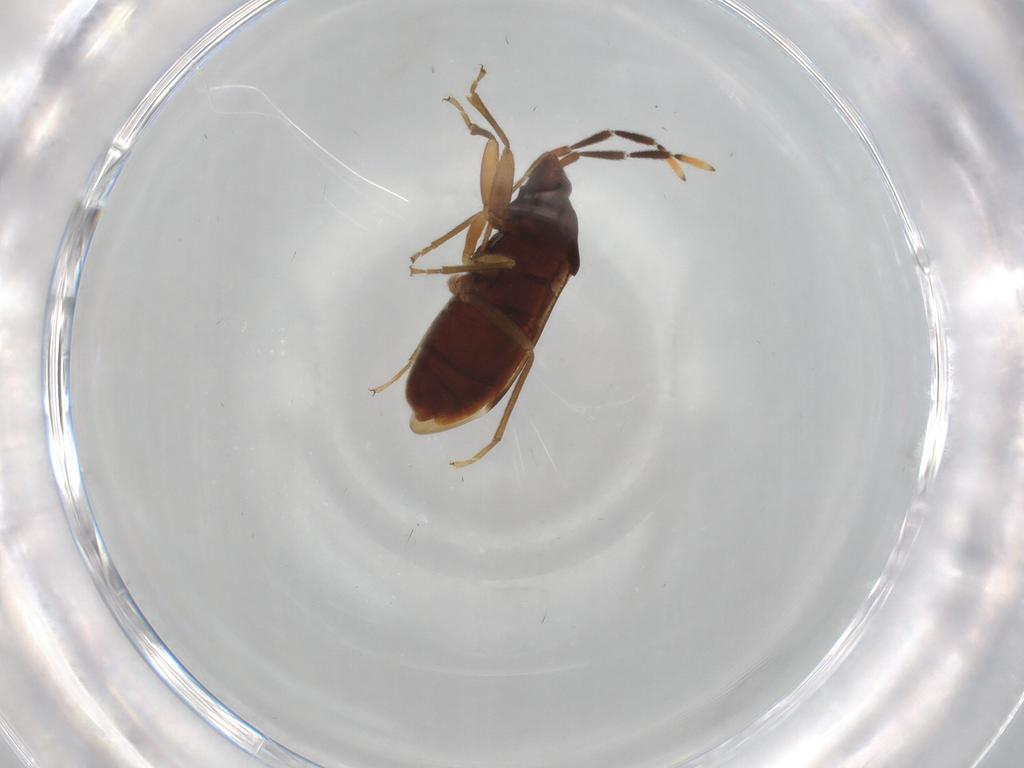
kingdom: Animalia
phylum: Arthropoda
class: Insecta
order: Hemiptera
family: Rhyparochromidae
